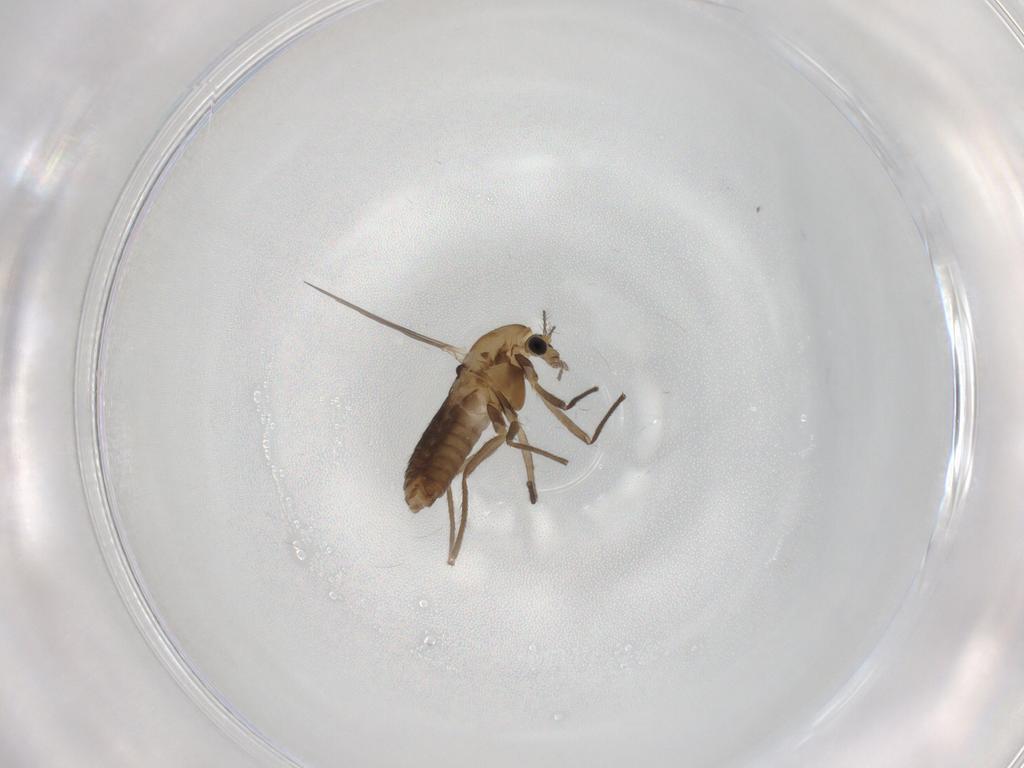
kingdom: Animalia
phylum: Arthropoda
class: Insecta
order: Diptera
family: Chironomidae
